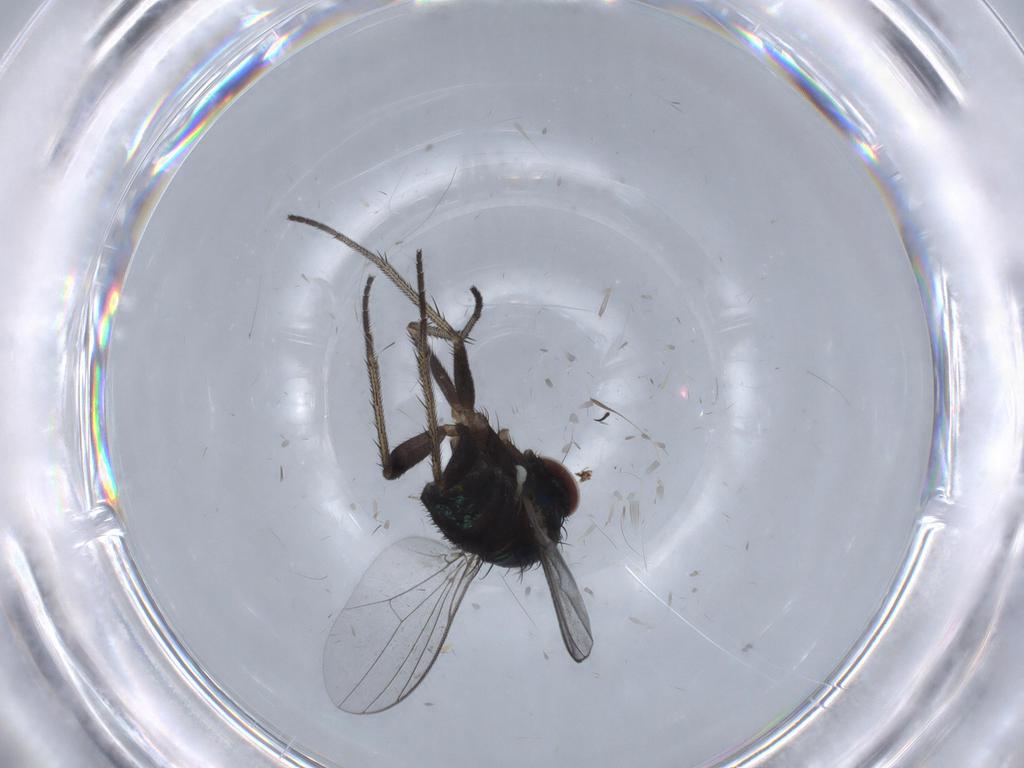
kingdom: Animalia
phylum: Arthropoda
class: Insecta
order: Diptera
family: Dolichopodidae
